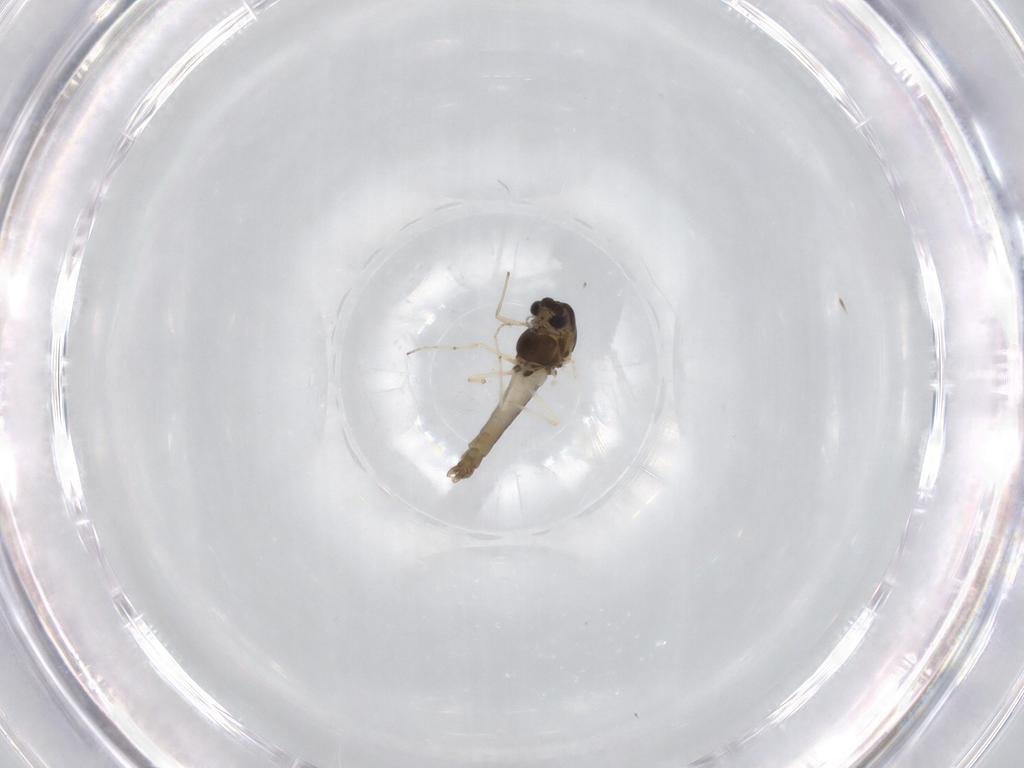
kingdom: Animalia
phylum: Arthropoda
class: Insecta
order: Diptera
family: Chironomidae
